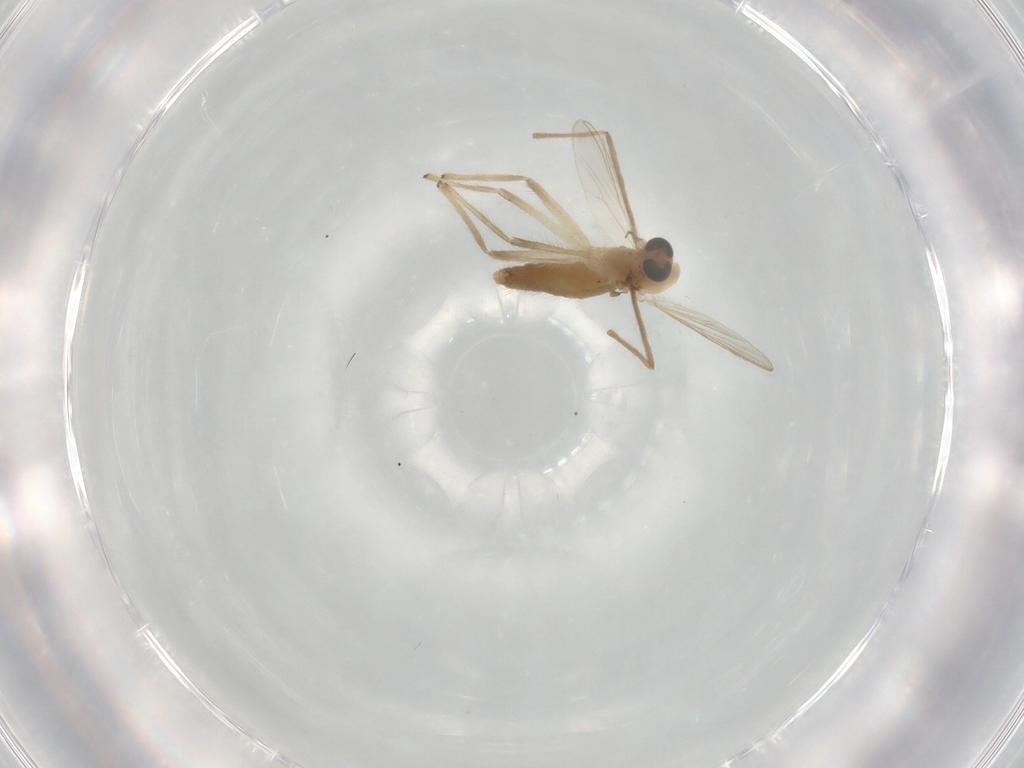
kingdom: Animalia
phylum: Arthropoda
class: Insecta
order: Diptera
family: Chironomidae
